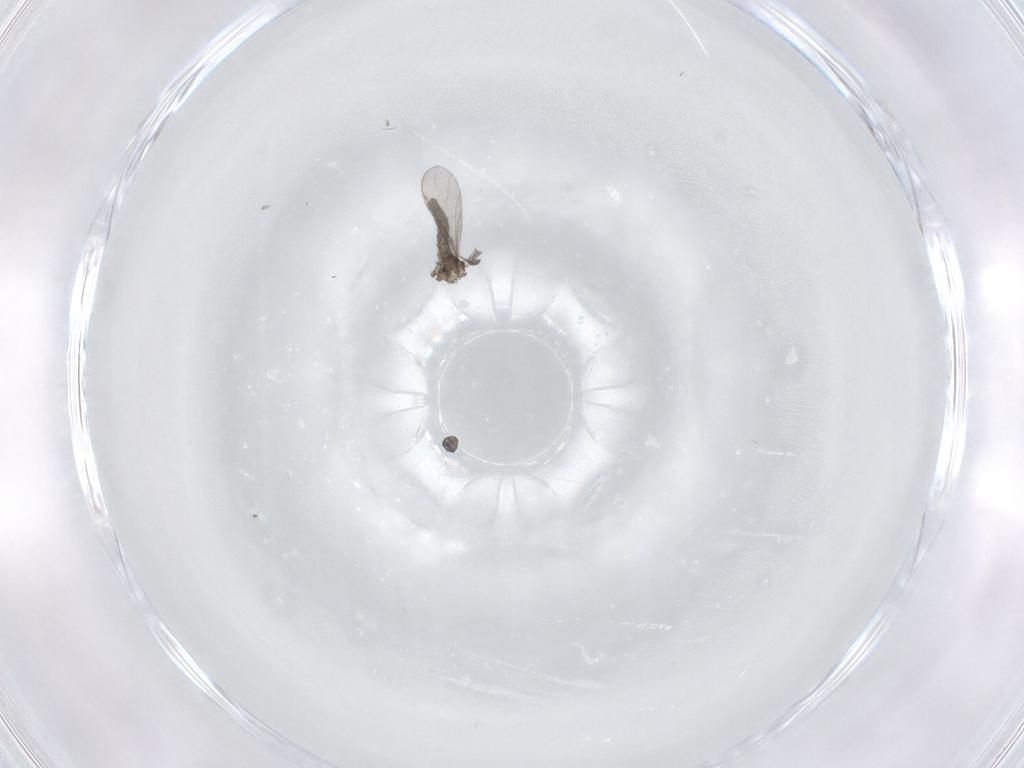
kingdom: Animalia
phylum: Arthropoda
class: Insecta
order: Diptera
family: Sciaridae
